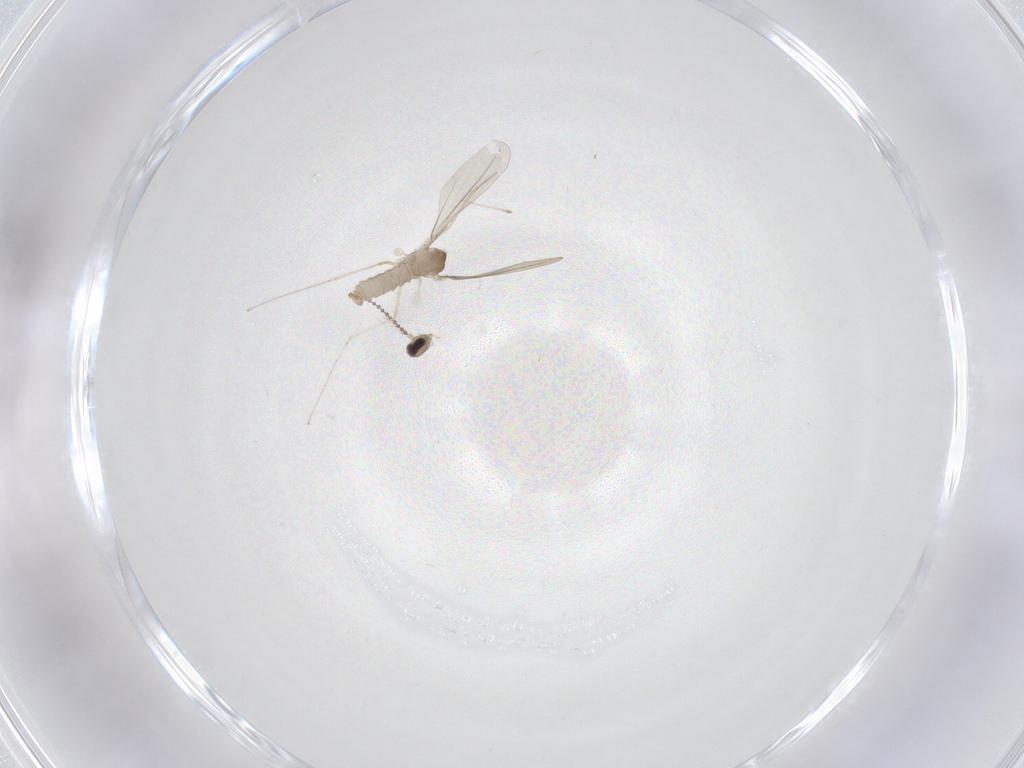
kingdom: Animalia
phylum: Arthropoda
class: Insecta
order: Diptera
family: Cecidomyiidae
